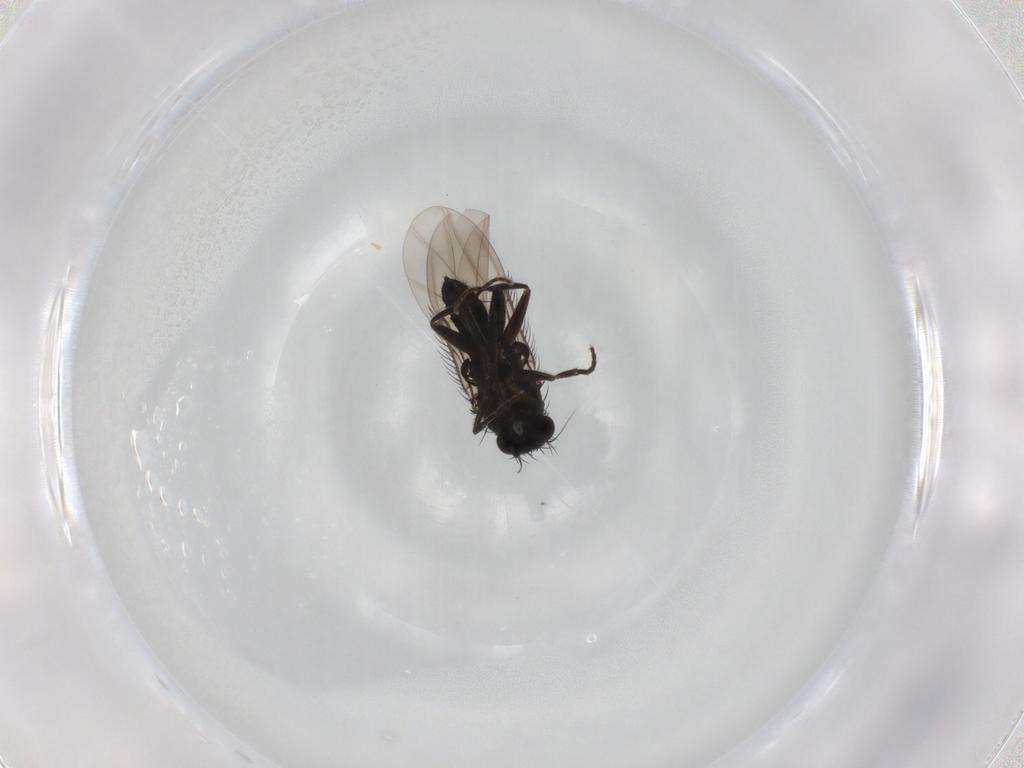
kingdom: Animalia
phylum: Arthropoda
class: Insecta
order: Diptera
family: Phoridae
